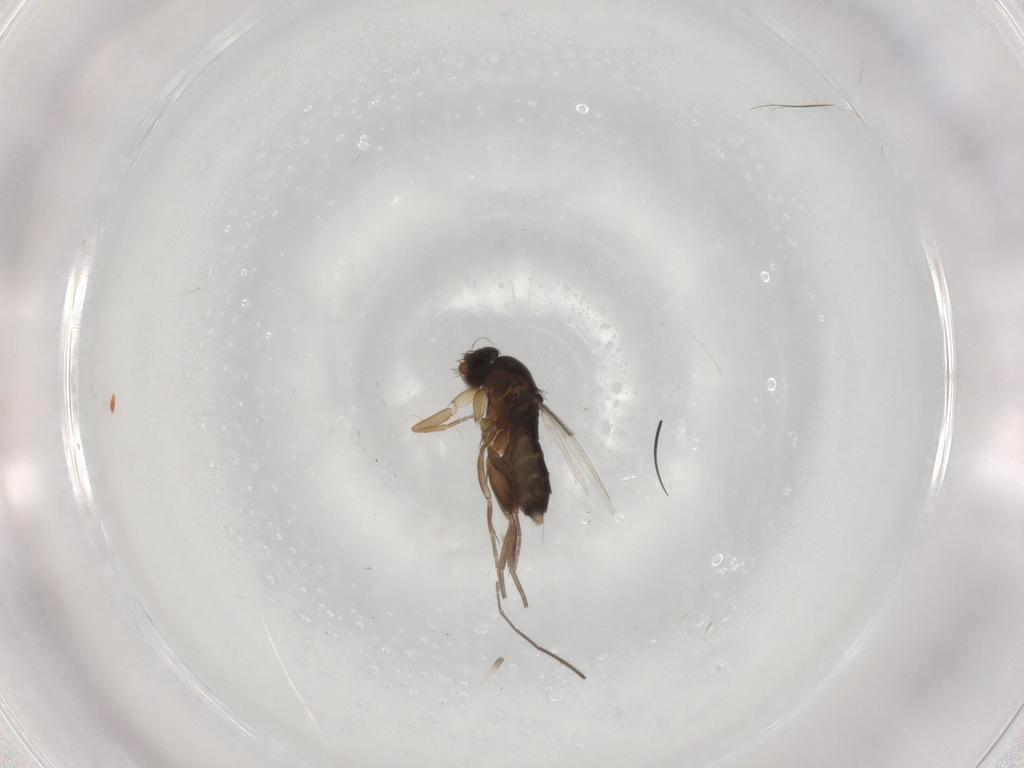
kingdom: Animalia
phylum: Arthropoda
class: Insecta
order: Diptera
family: Phoridae
